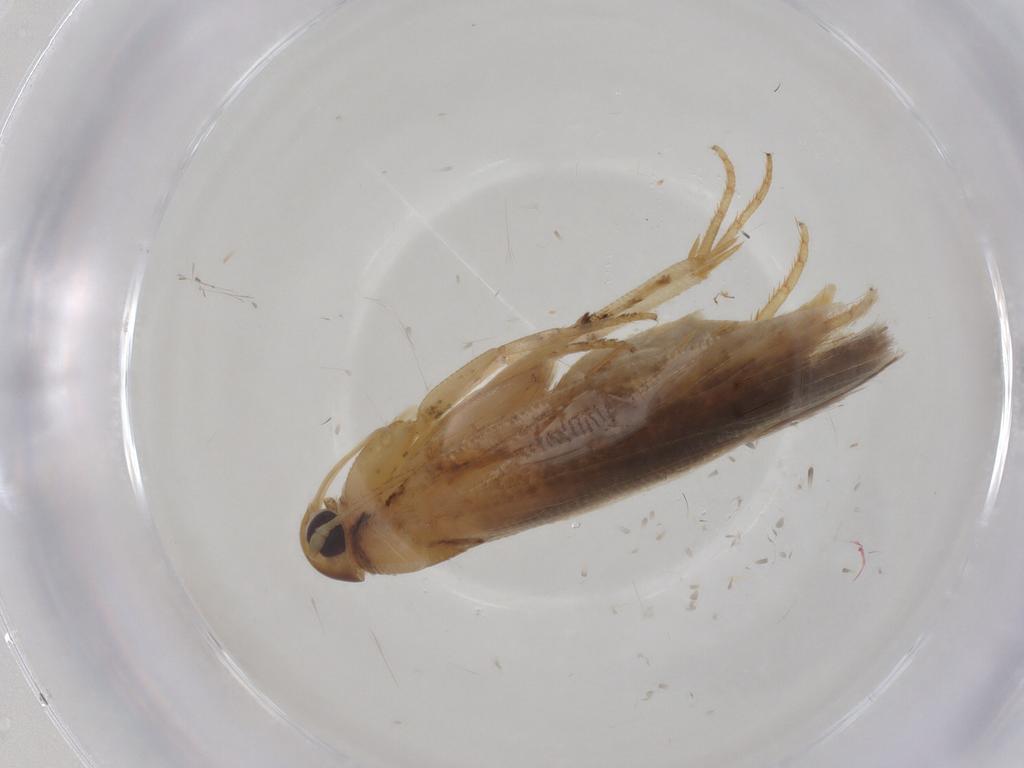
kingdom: Animalia
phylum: Arthropoda
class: Insecta
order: Lepidoptera
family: Gelechiidae
